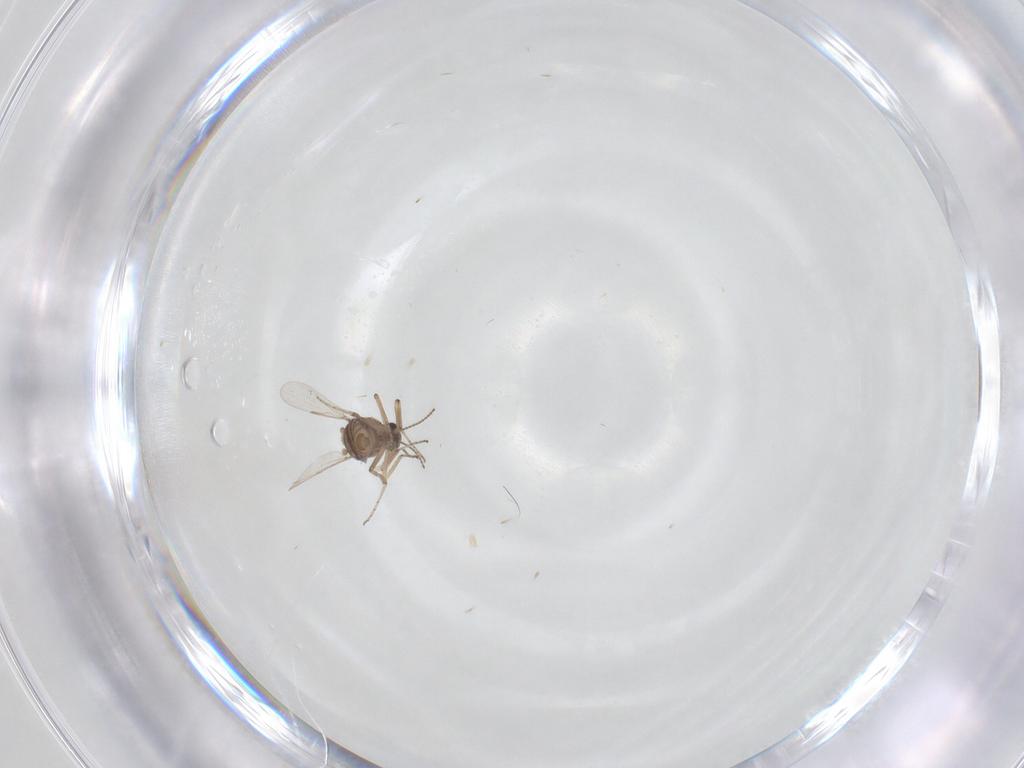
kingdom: Animalia
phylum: Arthropoda
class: Insecta
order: Diptera
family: Ceratopogonidae
